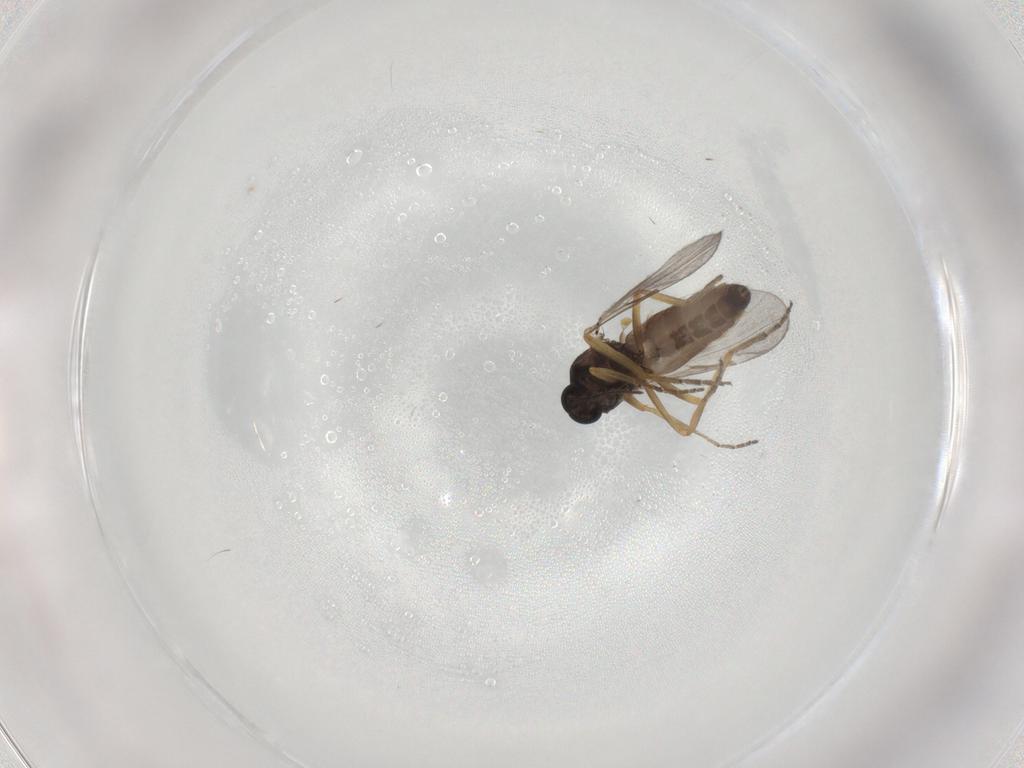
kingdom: Animalia
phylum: Arthropoda
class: Insecta
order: Diptera
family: Ceratopogonidae
